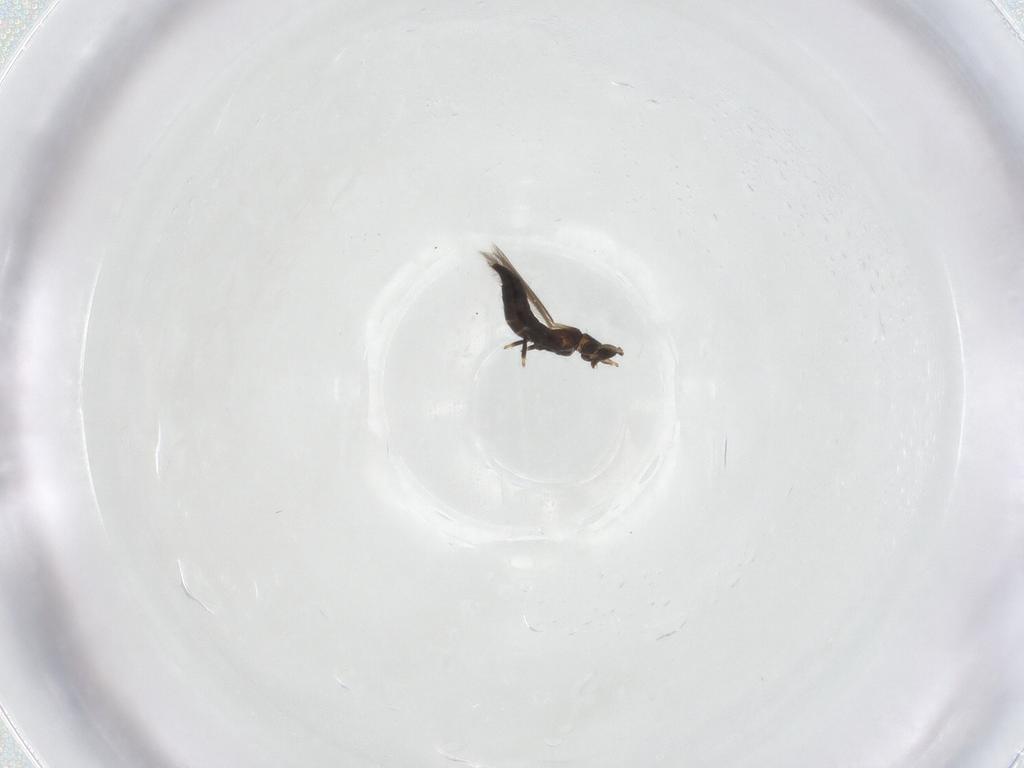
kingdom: Animalia
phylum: Arthropoda
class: Insecta
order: Thysanoptera
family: Thripidae
